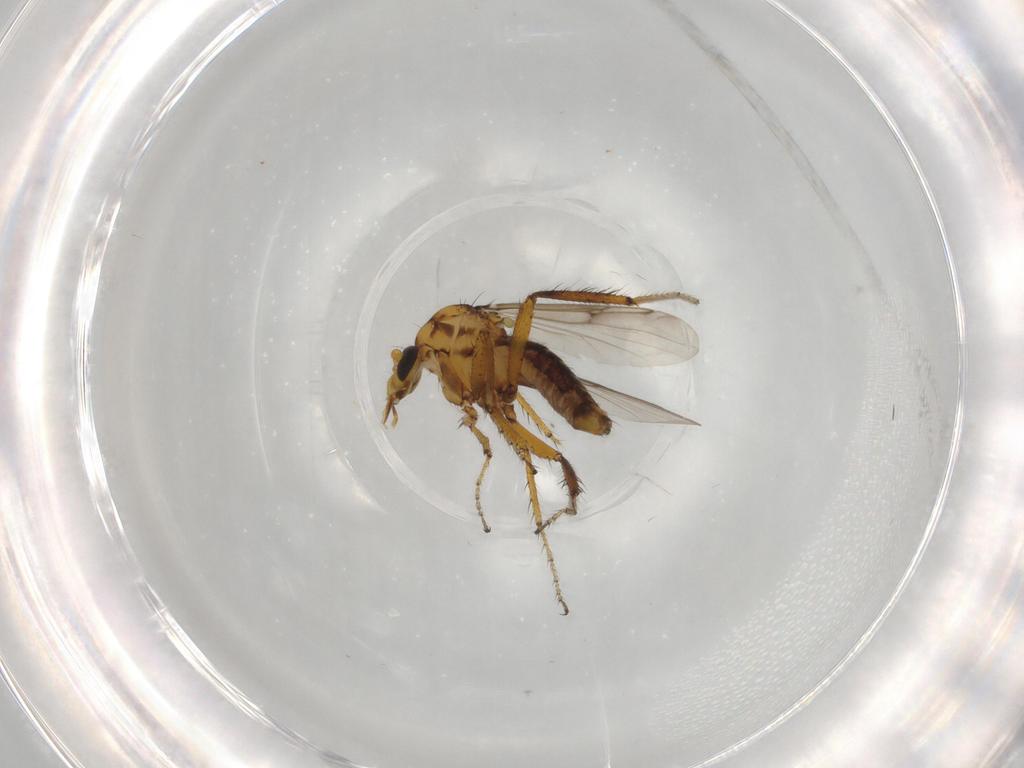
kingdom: Animalia
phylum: Arthropoda
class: Insecta
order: Diptera
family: Ceratopogonidae
